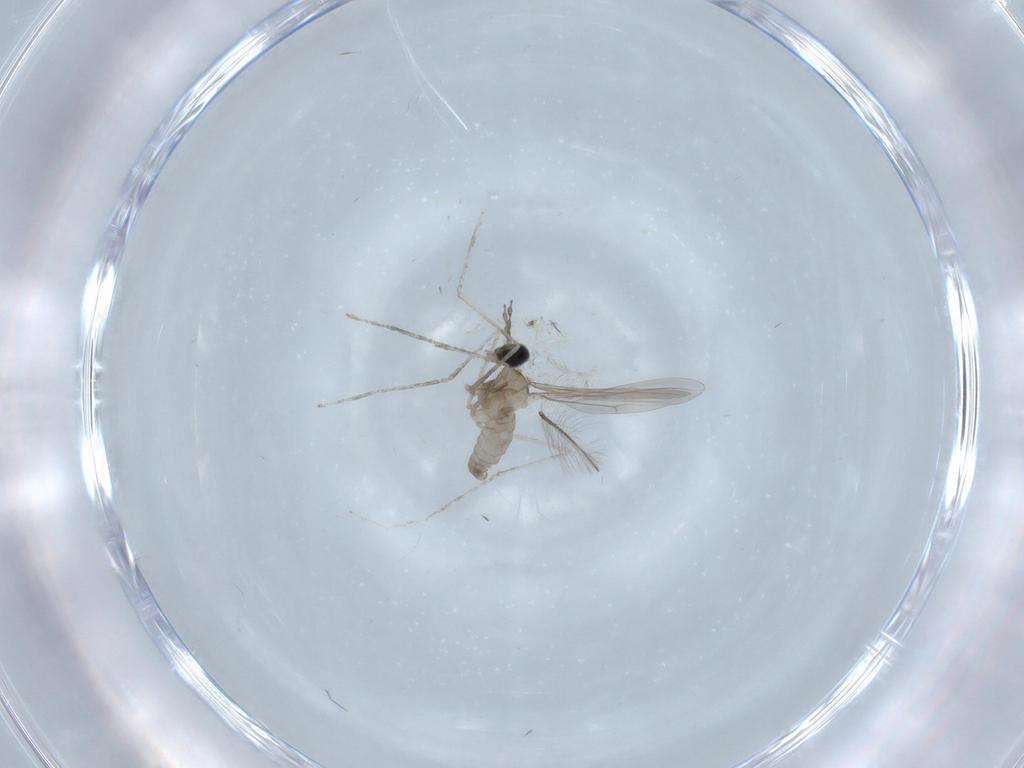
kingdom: Animalia
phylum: Arthropoda
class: Insecta
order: Diptera
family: Cecidomyiidae
